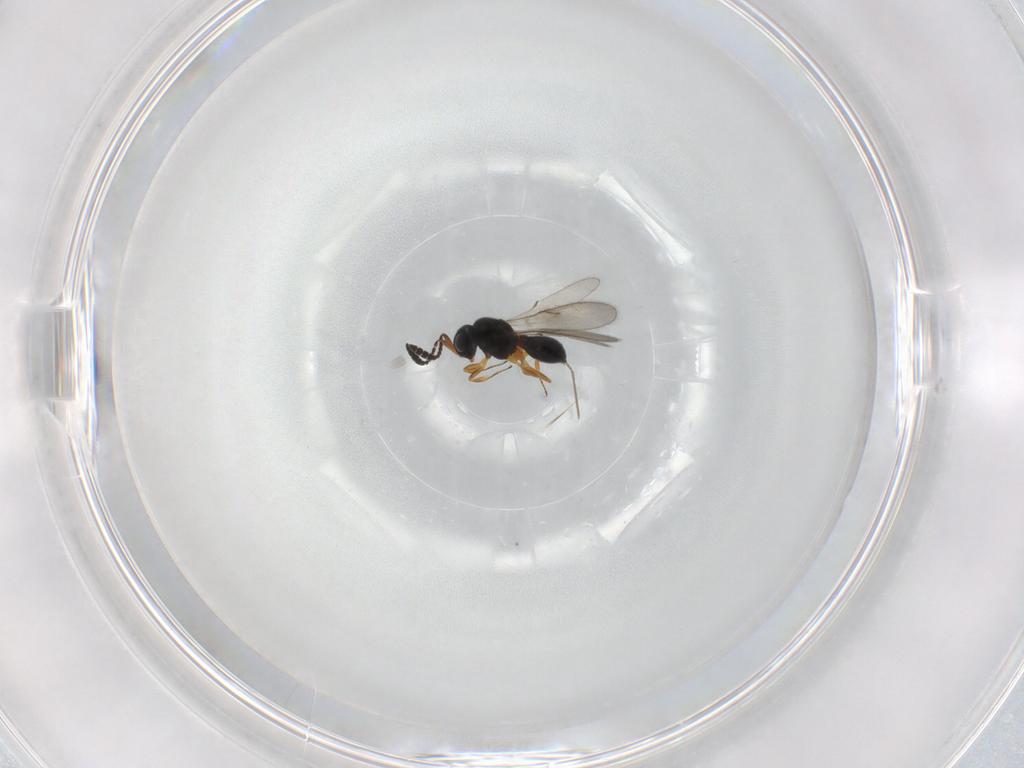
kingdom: Animalia
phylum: Arthropoda
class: Insecta
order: Hymenoptera
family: Scelionidae
